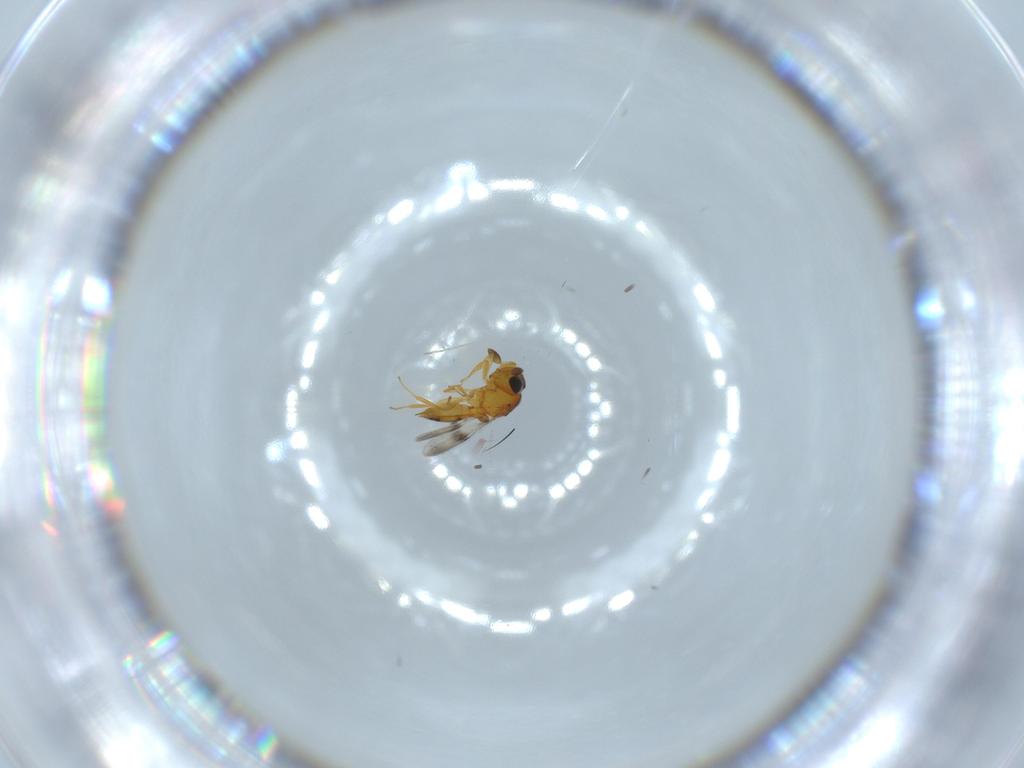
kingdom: Animalia
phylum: Arthropoda
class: Insecta
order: Hymenoptera
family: Scelionidae
